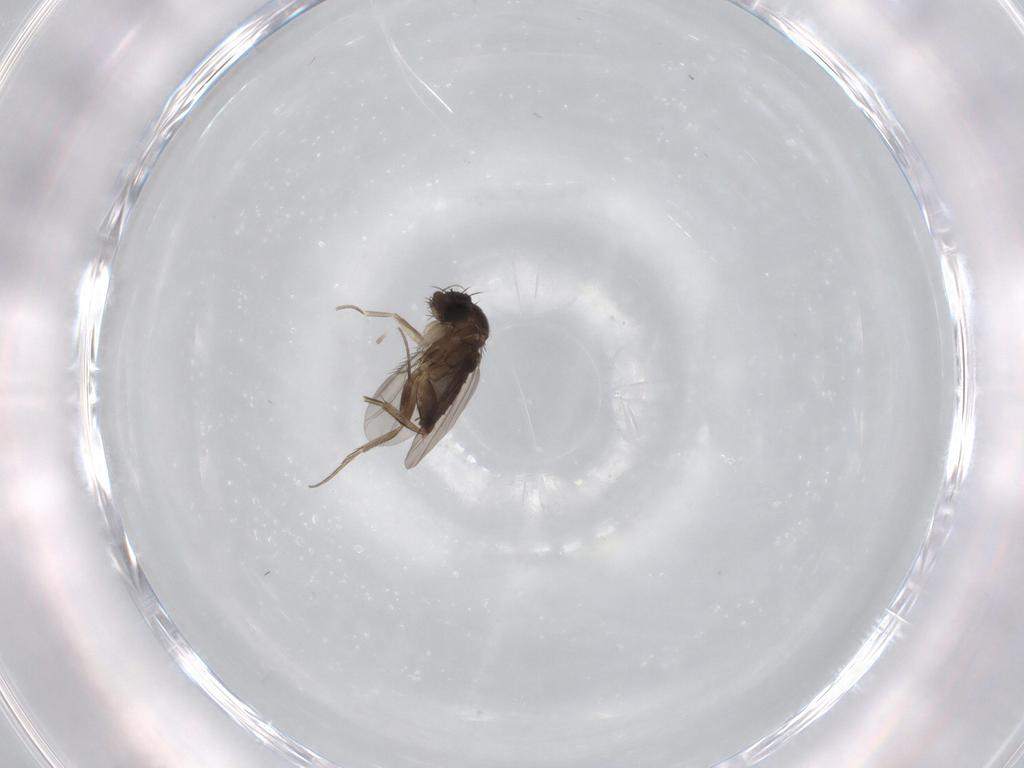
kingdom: Animalia
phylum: Arthropoda
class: Insecta
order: Diptera
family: Phoridae
